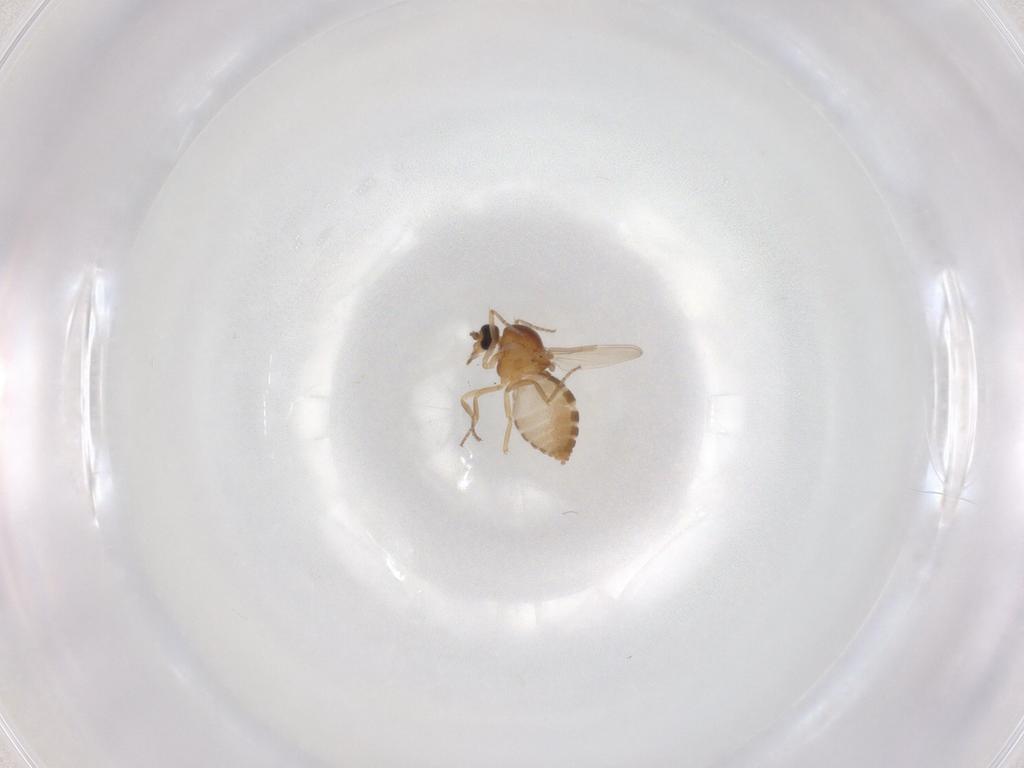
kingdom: Animalia
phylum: Arthropoda
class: Insecta
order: Diptera
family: Ceratopogonidae
